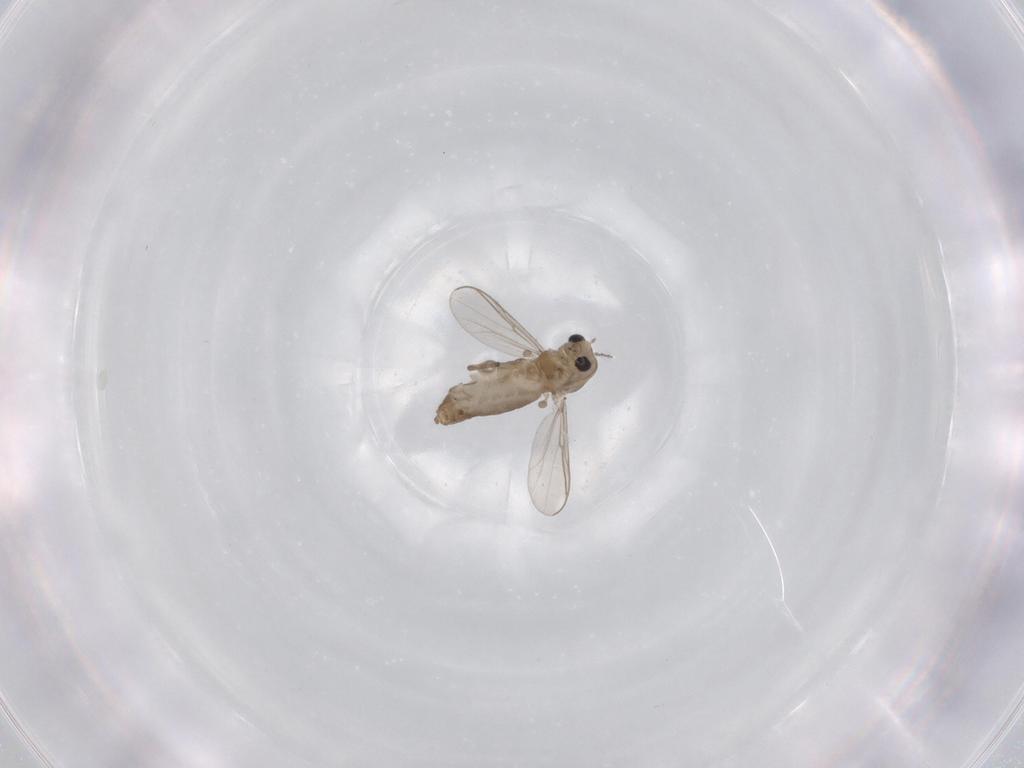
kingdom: Animalia
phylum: Arthropoda
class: Insecta
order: Diptera
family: Chironomidae
